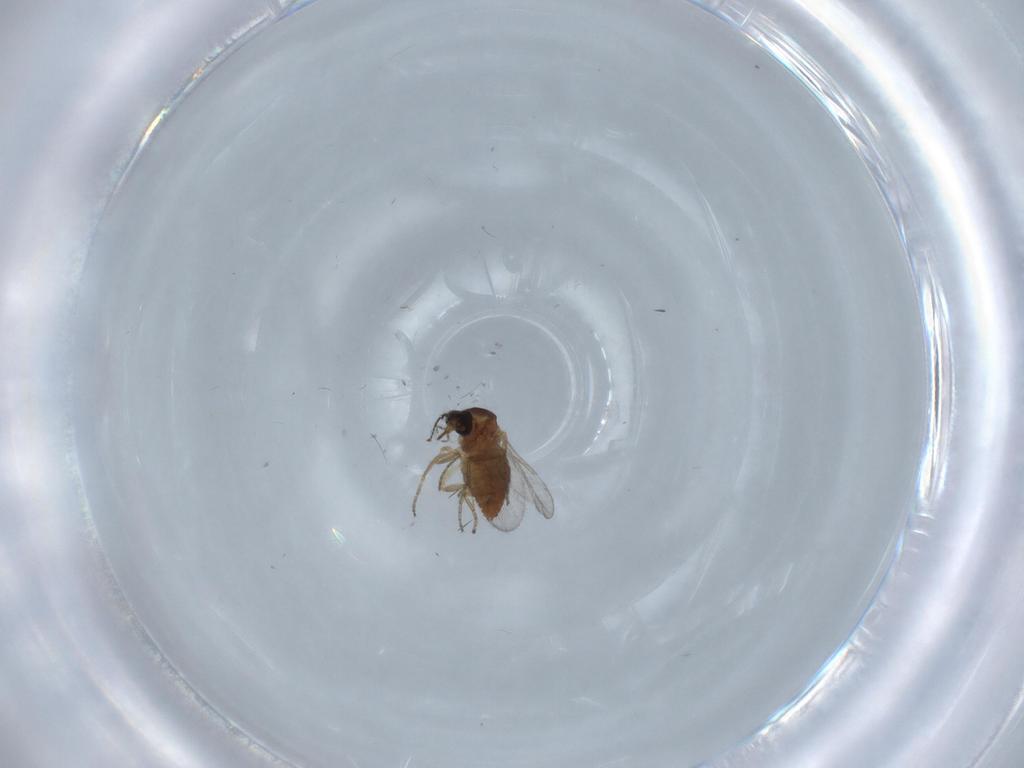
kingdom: Animalia
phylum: Arthropoda
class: Insecta
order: Diptera
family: Ceratopogonidae
